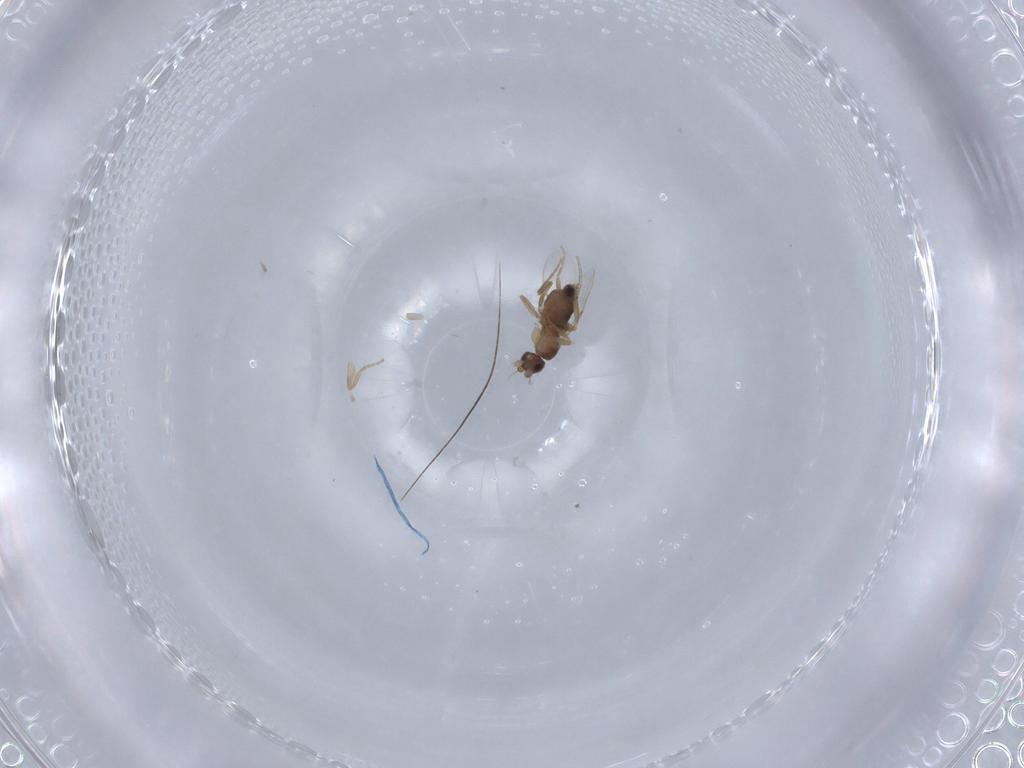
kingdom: Animalia
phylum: Arthropoda
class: Insecta
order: Diptera
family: Phoridae
